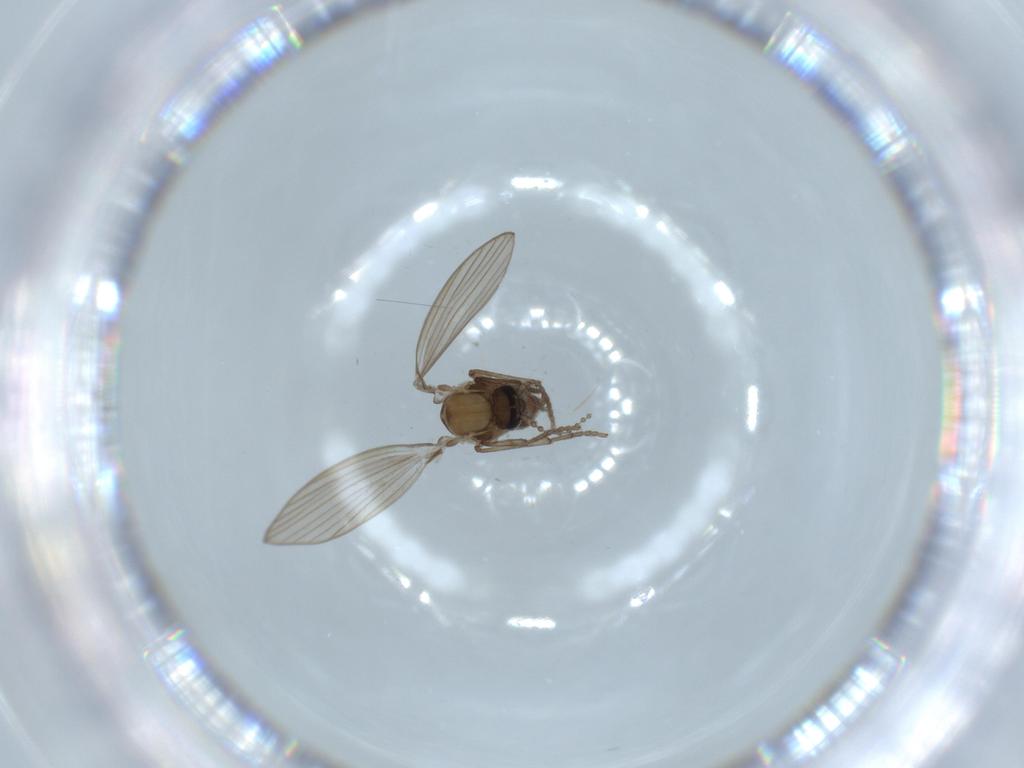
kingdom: Animalia
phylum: Arthropoda
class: Insecta
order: Diptera
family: Psychodidae
